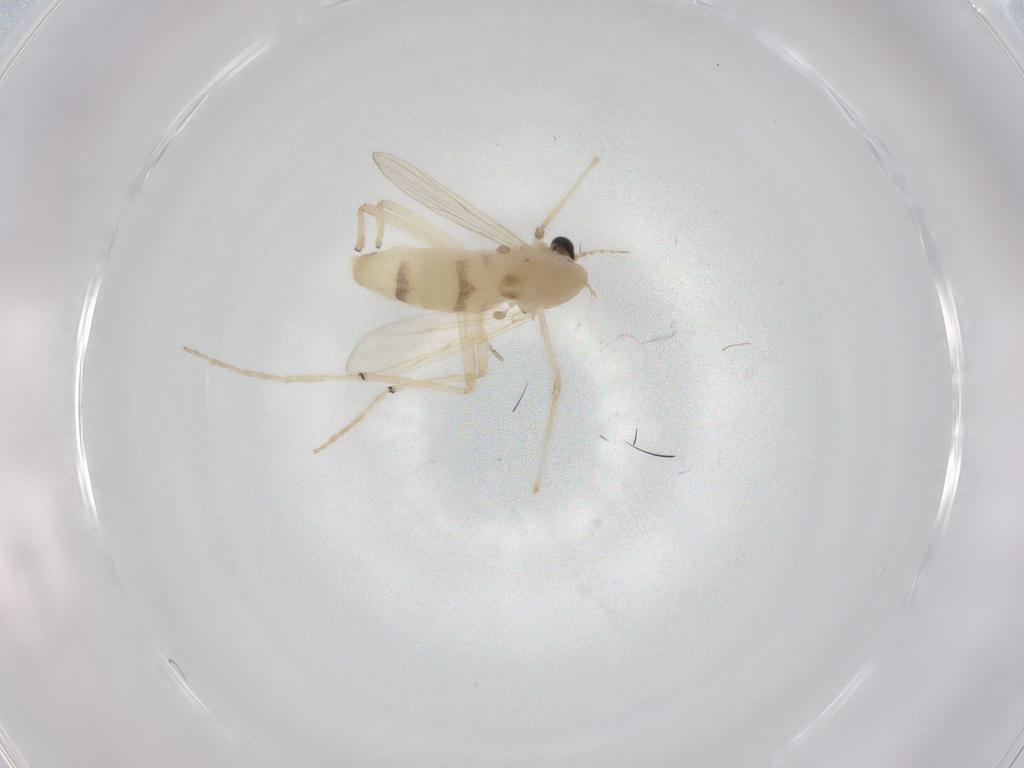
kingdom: Animalia
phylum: Arthropoda
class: Insecta
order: Diptera
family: Chironomidae
